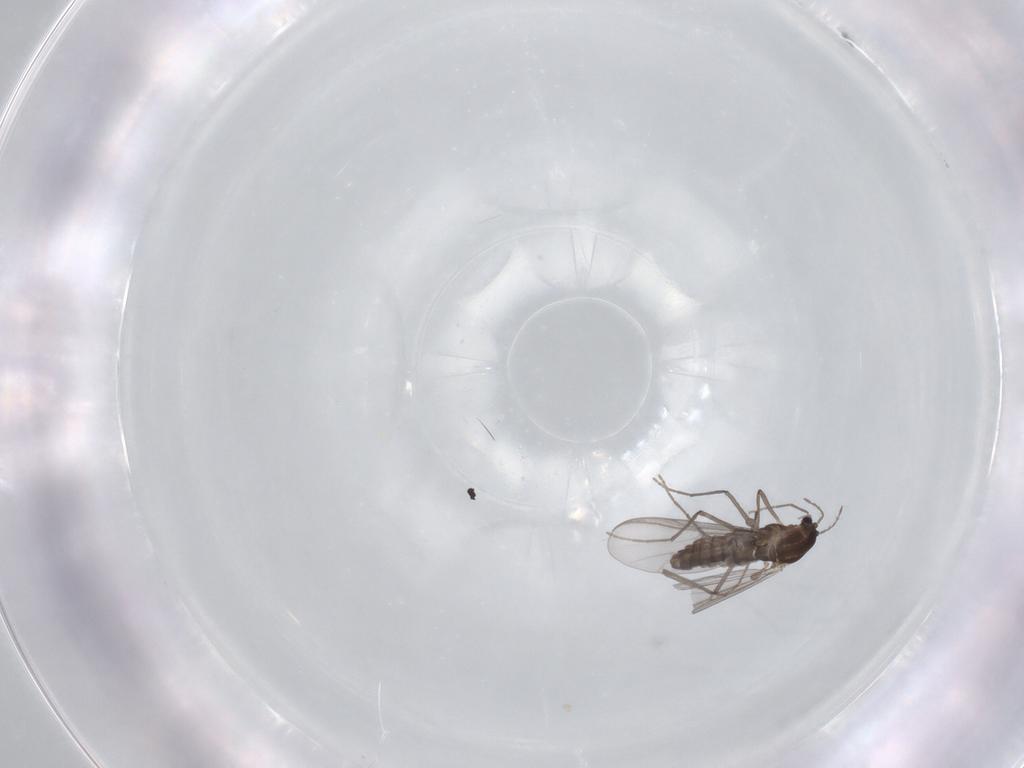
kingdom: Animalia
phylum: Arthropoda
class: Insecta
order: Diptera
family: Chironomidae
